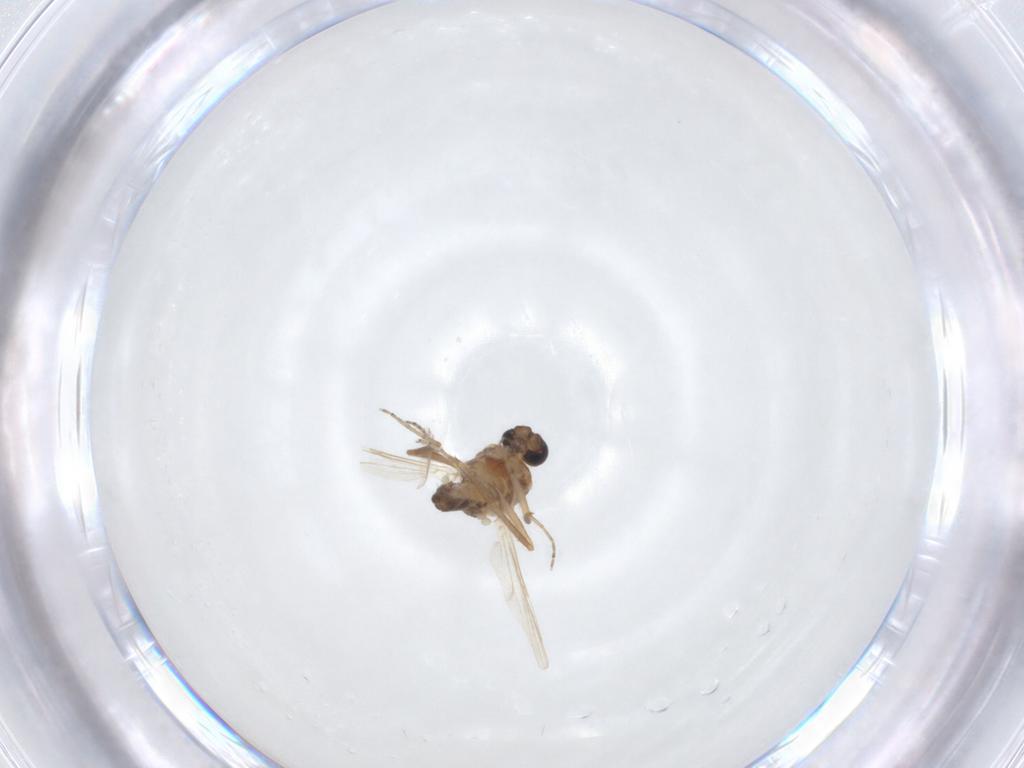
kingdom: Animalia
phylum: Arthropoda
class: Insecta
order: Diptera
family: Ceratopogonidae
